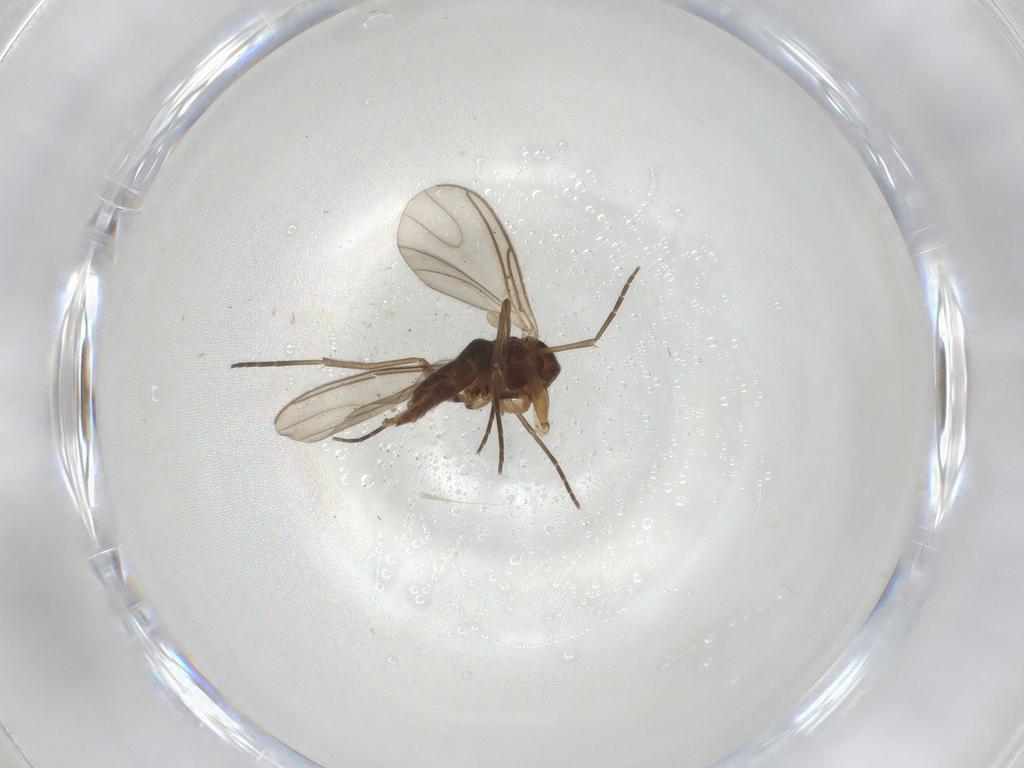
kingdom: Animalia
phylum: Arthropoda
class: Insecta
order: Diptera
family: Sciaridae
